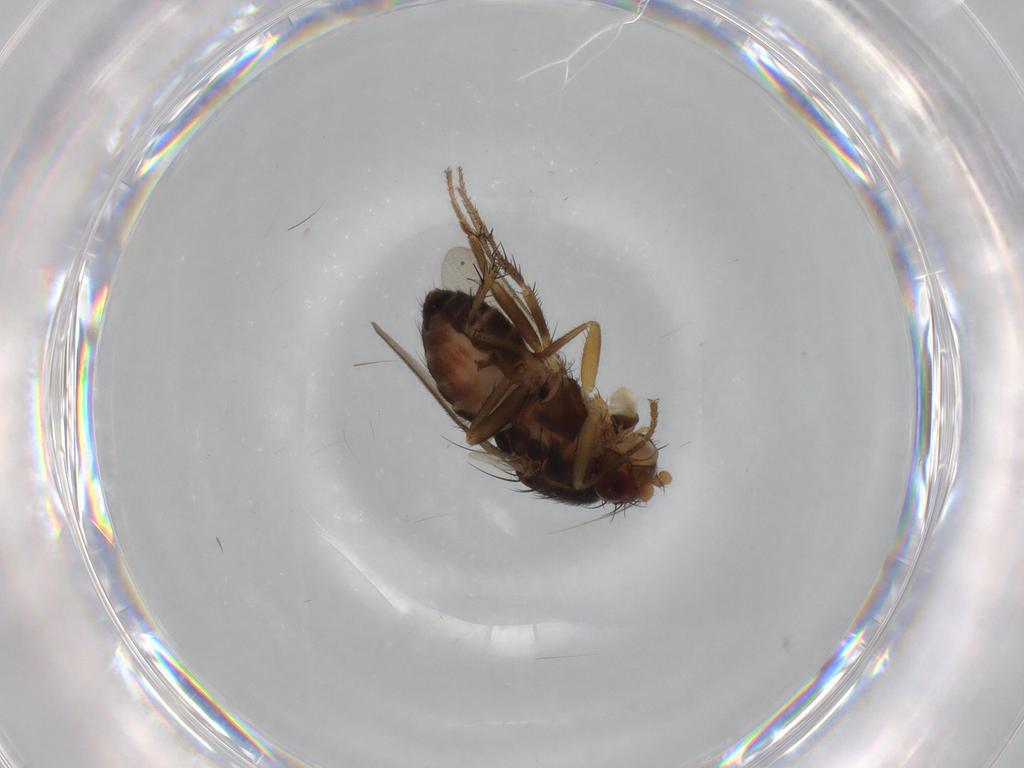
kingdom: Animalia
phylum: Arthropoda
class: Insecta
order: Diptera
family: Sphaeroceridae
